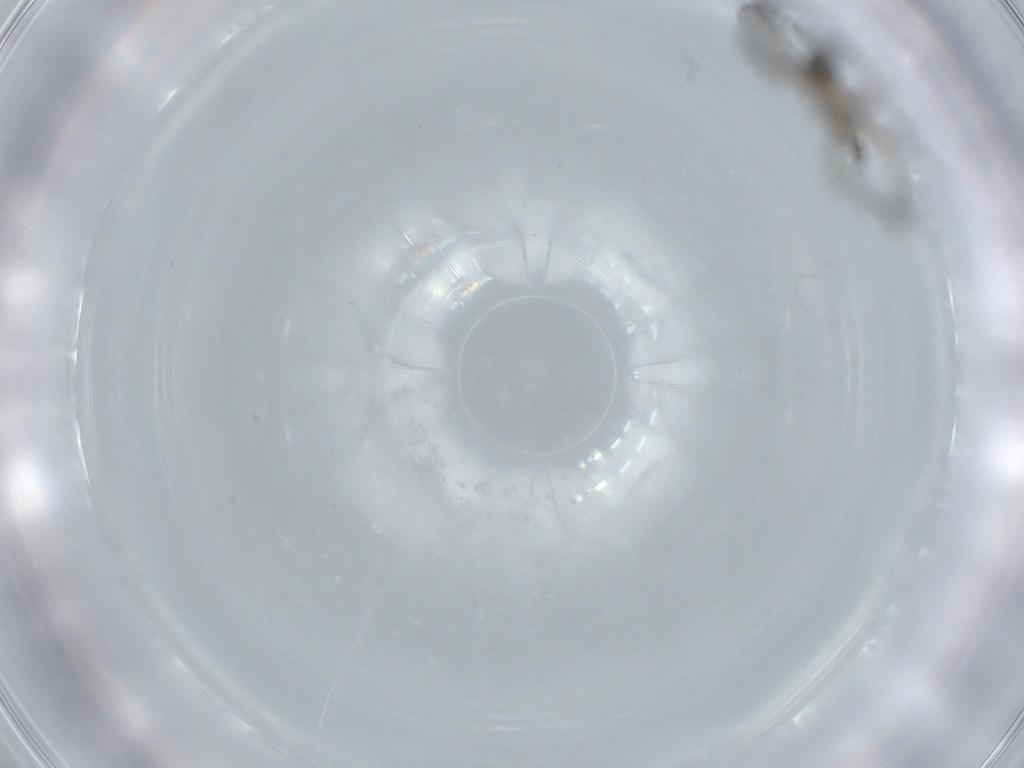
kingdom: Animalia
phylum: Arthropoda
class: Insecta
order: Diptera
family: Sciaridae
